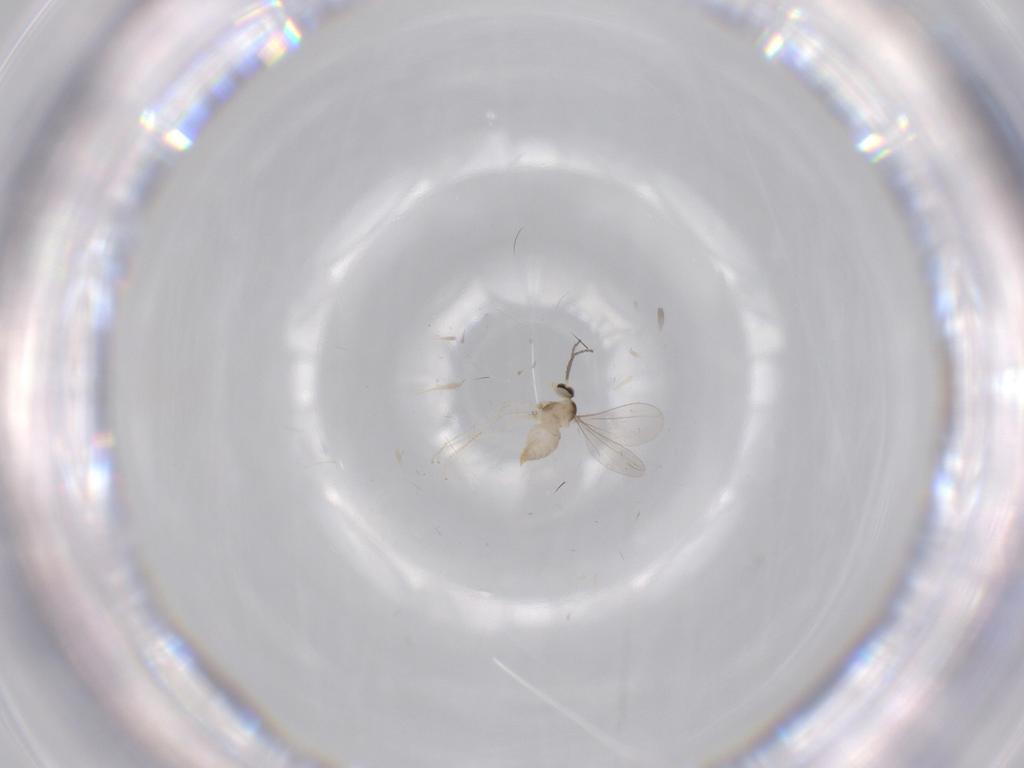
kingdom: Animalia
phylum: Arthropoda
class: Insecta
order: Diptera
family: Cecidomyiidae
